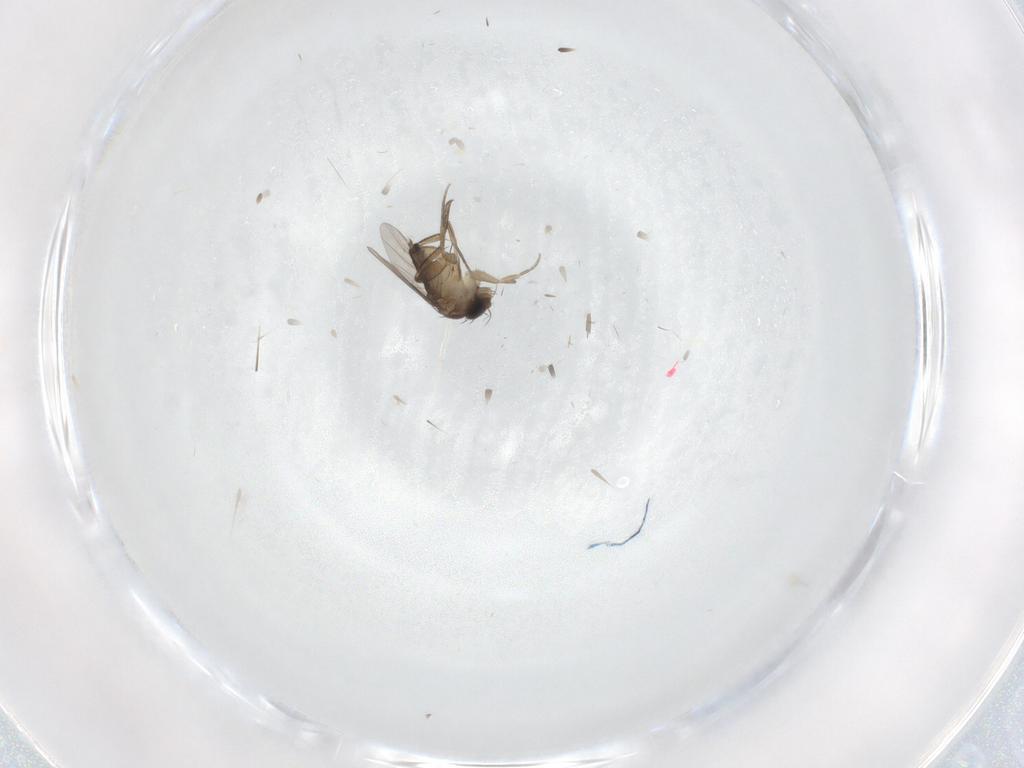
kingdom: Animalia
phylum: Arthropoda
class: Insecta
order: Diptera
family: Phoridae
